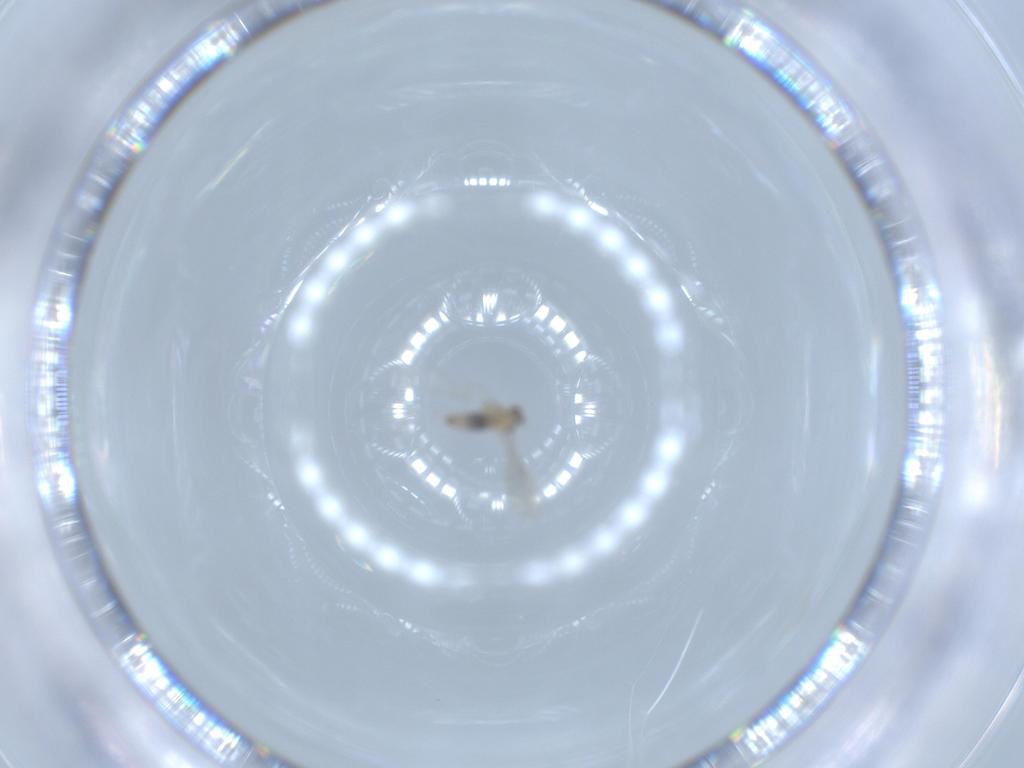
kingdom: Animalia
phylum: Arthropoda
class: Insecta
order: Diptera
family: Cecidomyiidae
